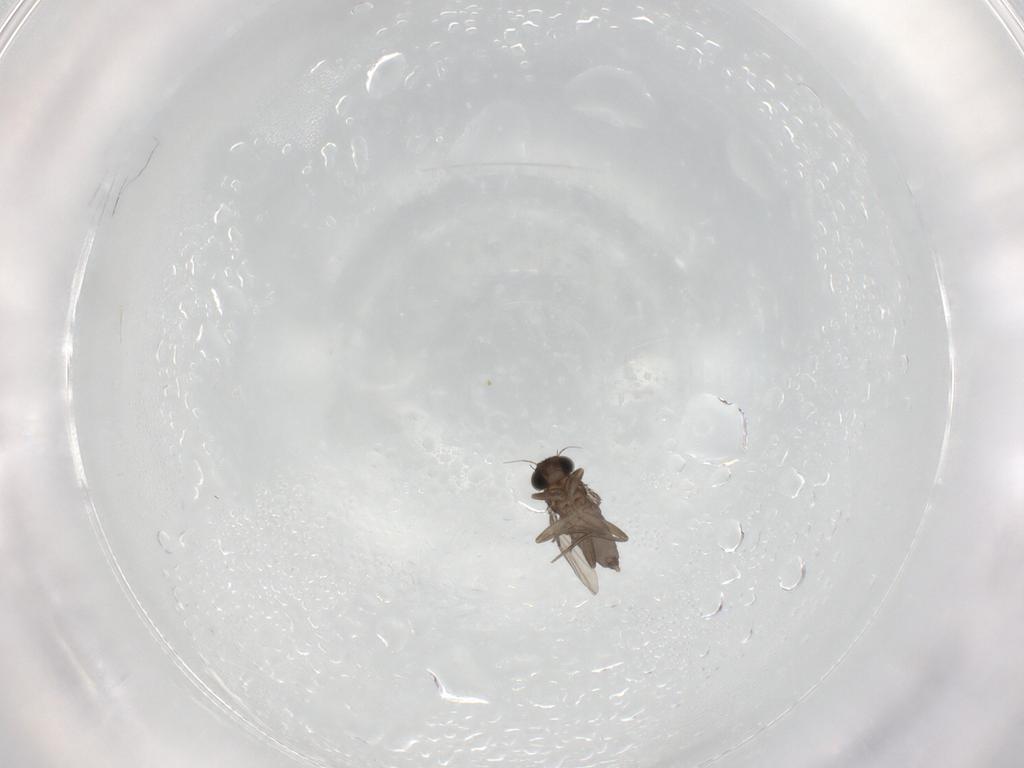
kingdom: Animalia
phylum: Arthropoda
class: Insecta
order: Diptera
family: Phoridae
